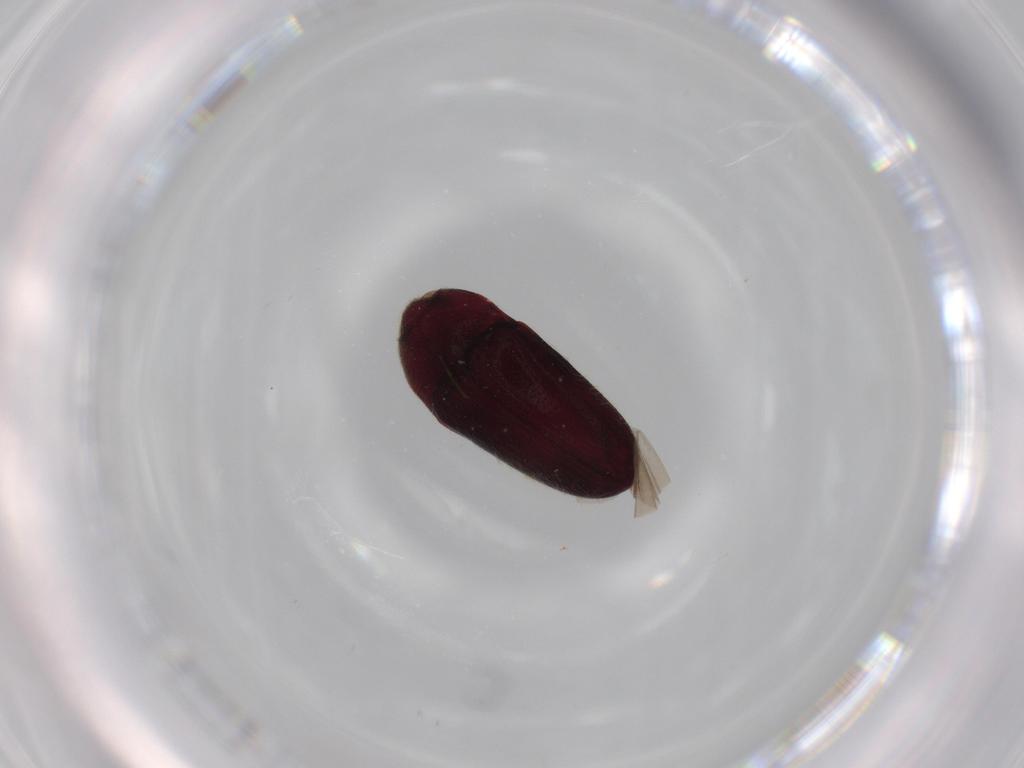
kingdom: Animalia
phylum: Arthropoda
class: Insecta
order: Coleoptera
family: Throscidae
